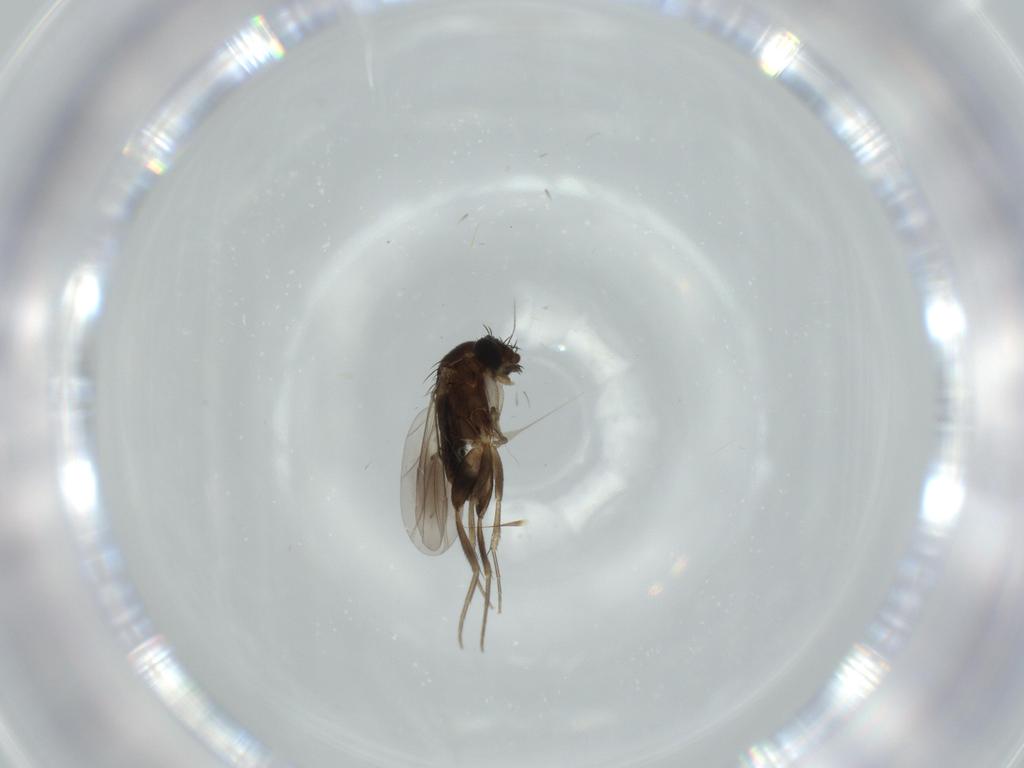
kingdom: Animalia
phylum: Arthropoda
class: Insecta
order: Diptera
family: Phoridae
